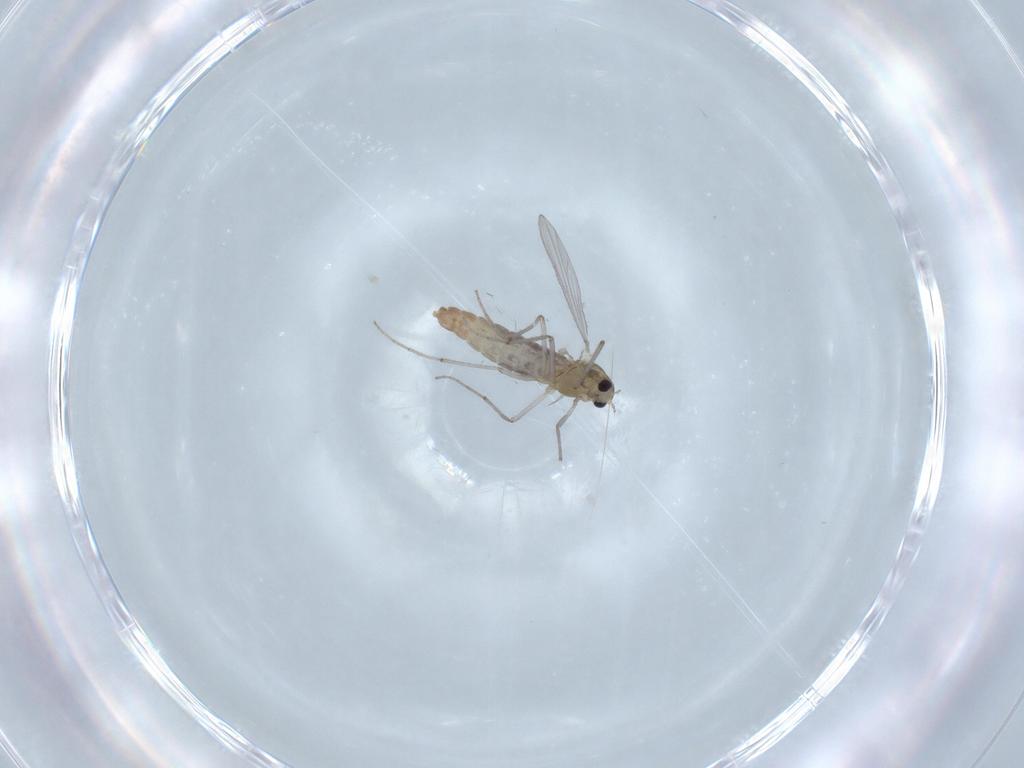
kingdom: Animalia
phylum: Arthropoda
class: Insecta
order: Diptera
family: Chironomidae
